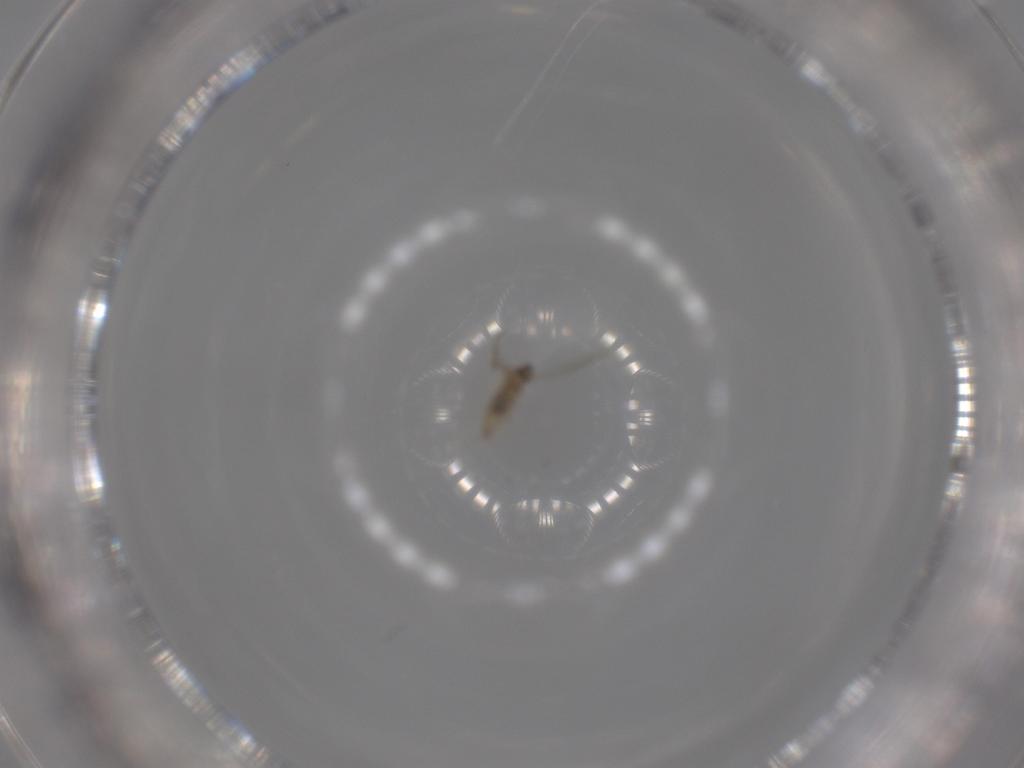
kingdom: Animalia
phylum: Arthropoda
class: Insecta
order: Diptera
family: Cecidomyiidae
